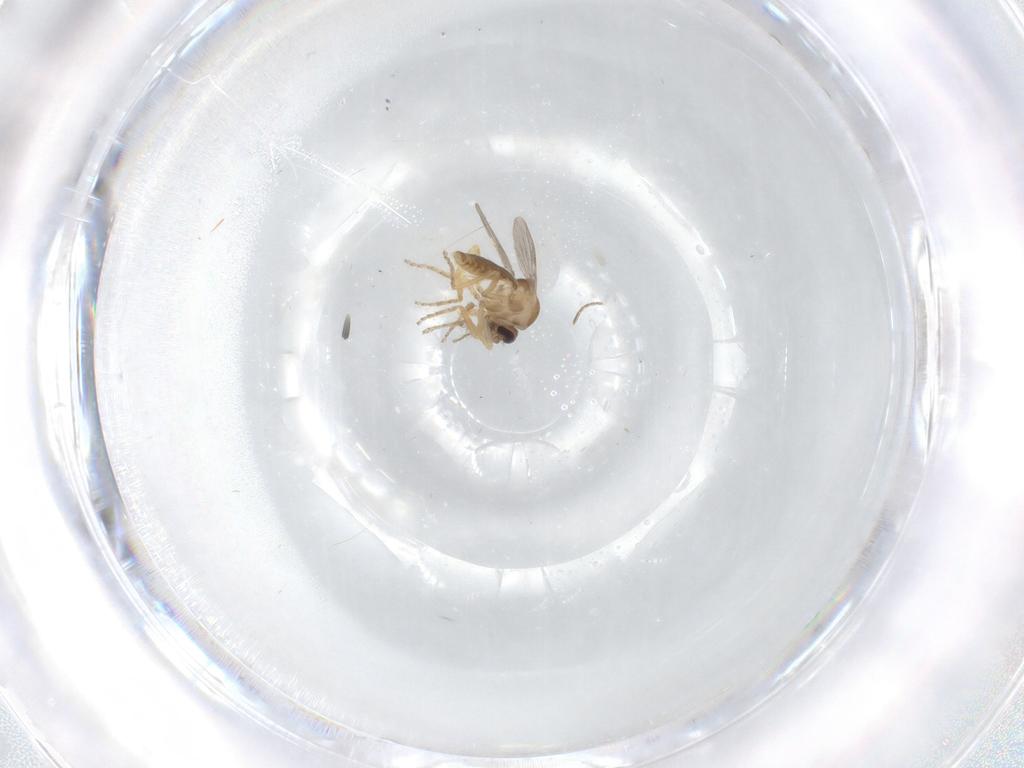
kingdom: Animalia
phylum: Arthropoda
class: Insecta
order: Diptera
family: Ceratopogonidae
